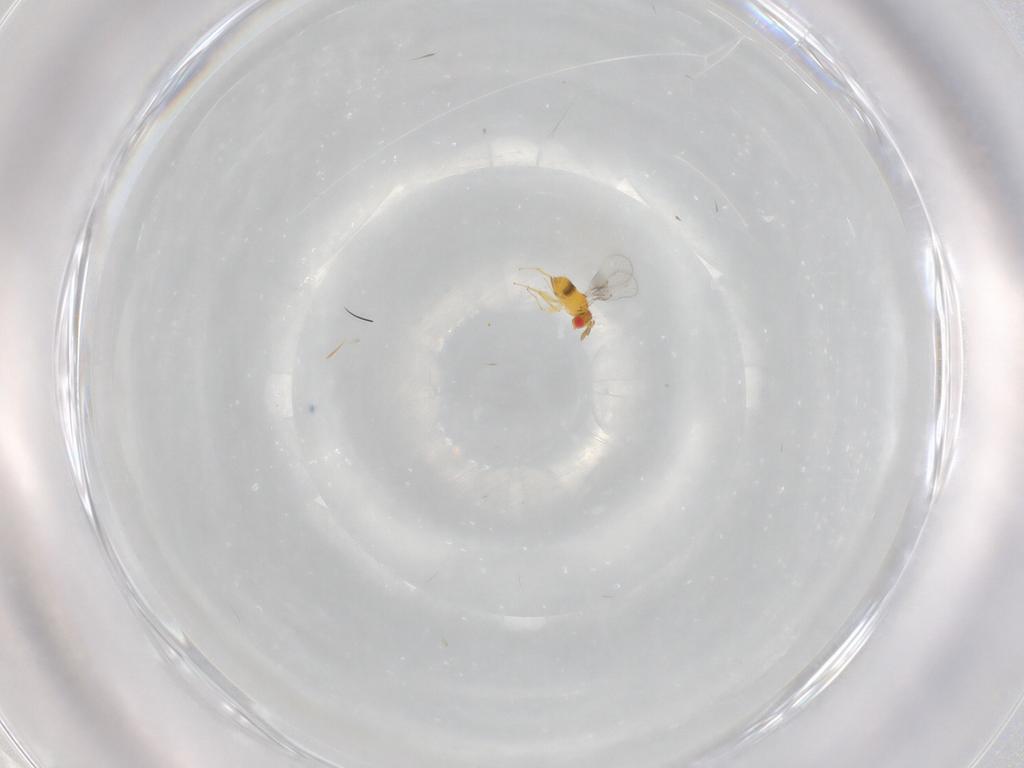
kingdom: Animalia
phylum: Arthropoda
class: Insecta
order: Hymenoptera
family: Trichogrammatidae
